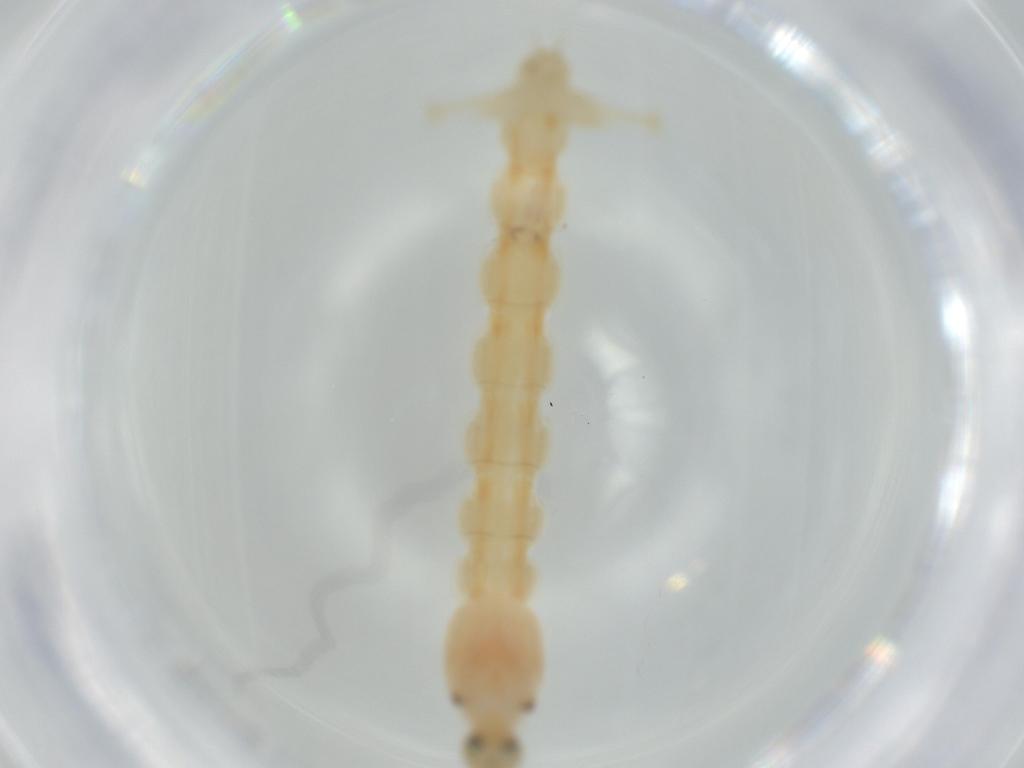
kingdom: Animalia
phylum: Arthropoda
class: Insecta
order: Diptera
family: Chironomidae
